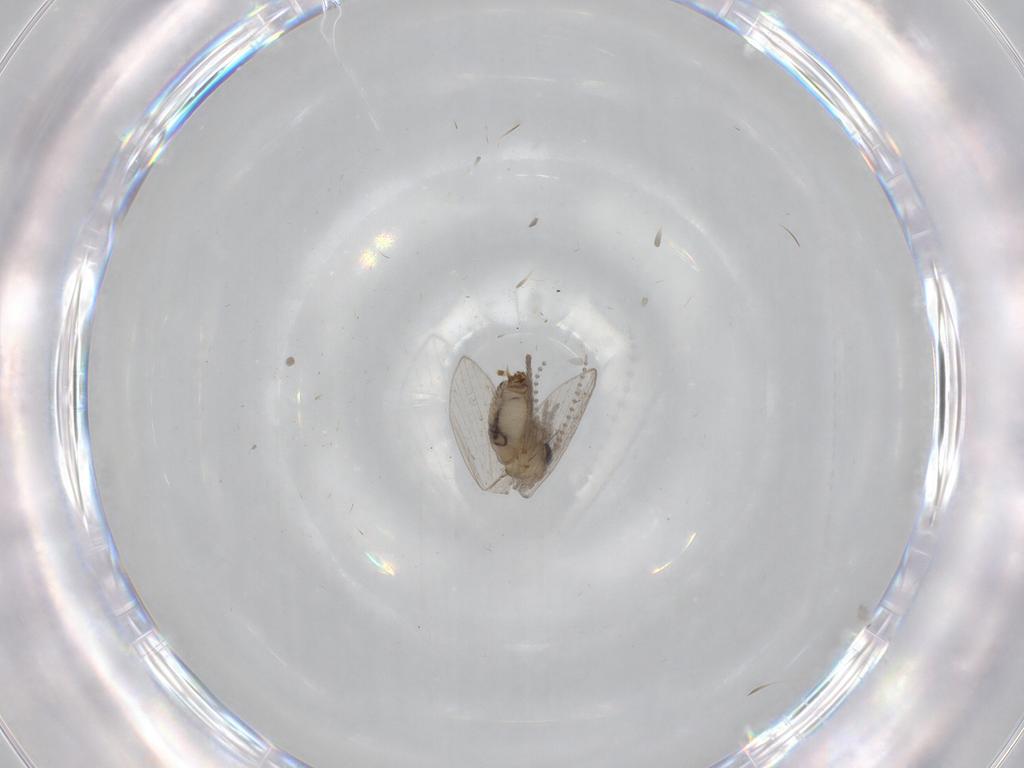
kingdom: Animalia
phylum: Arthropoda
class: Insecta
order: Diptera
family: Psychodidae
